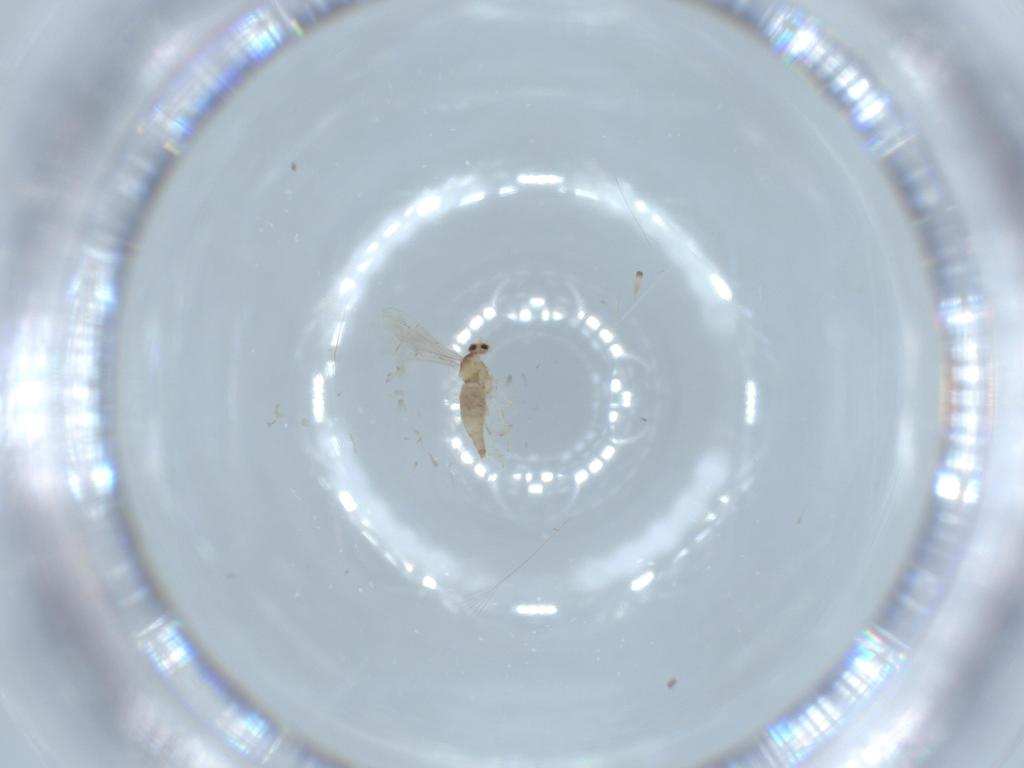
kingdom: Animalia
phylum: Arthropoda
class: Insecta
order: Diptera
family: Cecidomyiidae
